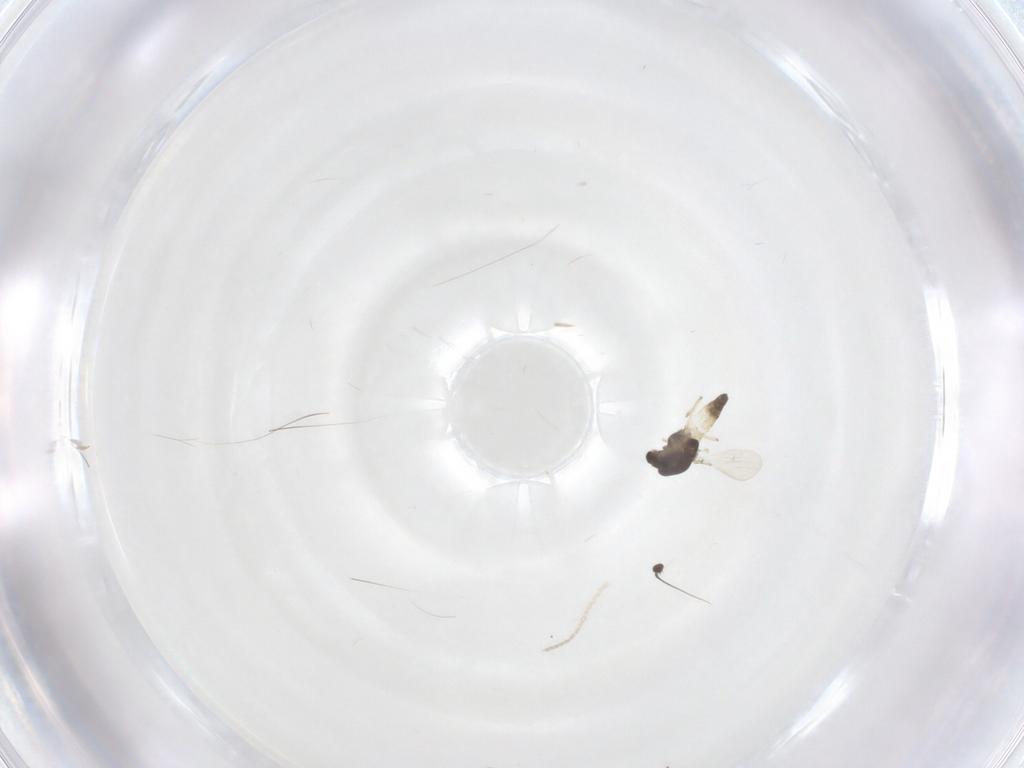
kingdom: Animalia
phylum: Arthropoda
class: Insecta
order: Diptera
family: Chironomidae
